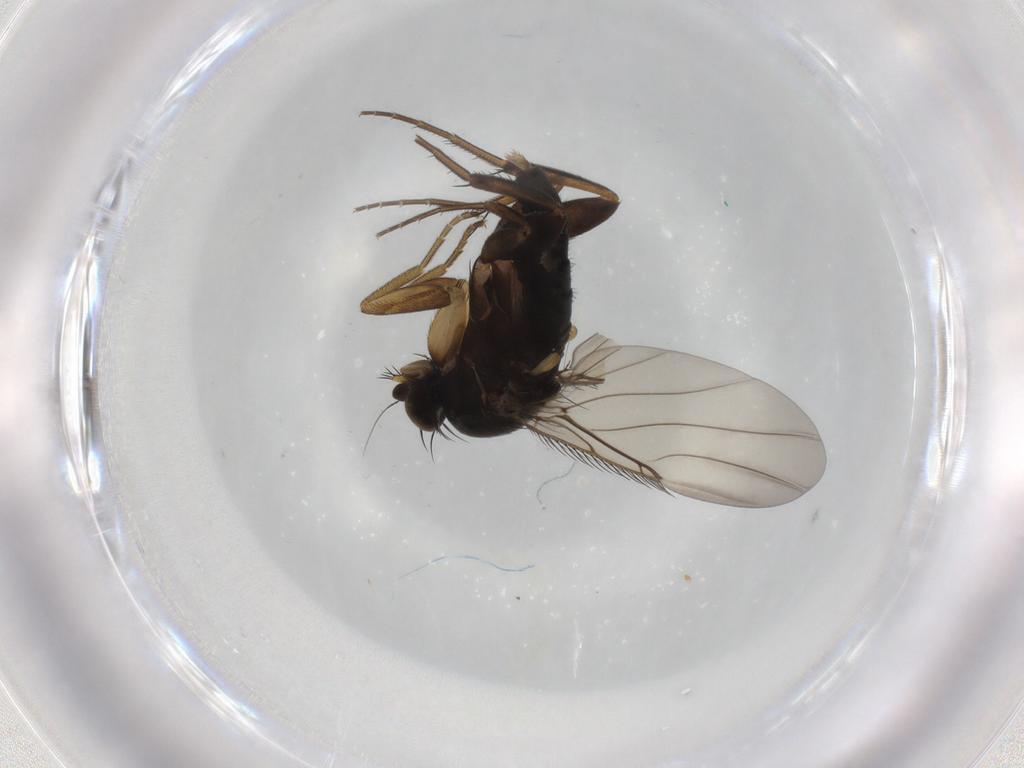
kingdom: Animalia
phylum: Arthropoda
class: Insecta
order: Diptera
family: Phoridae
